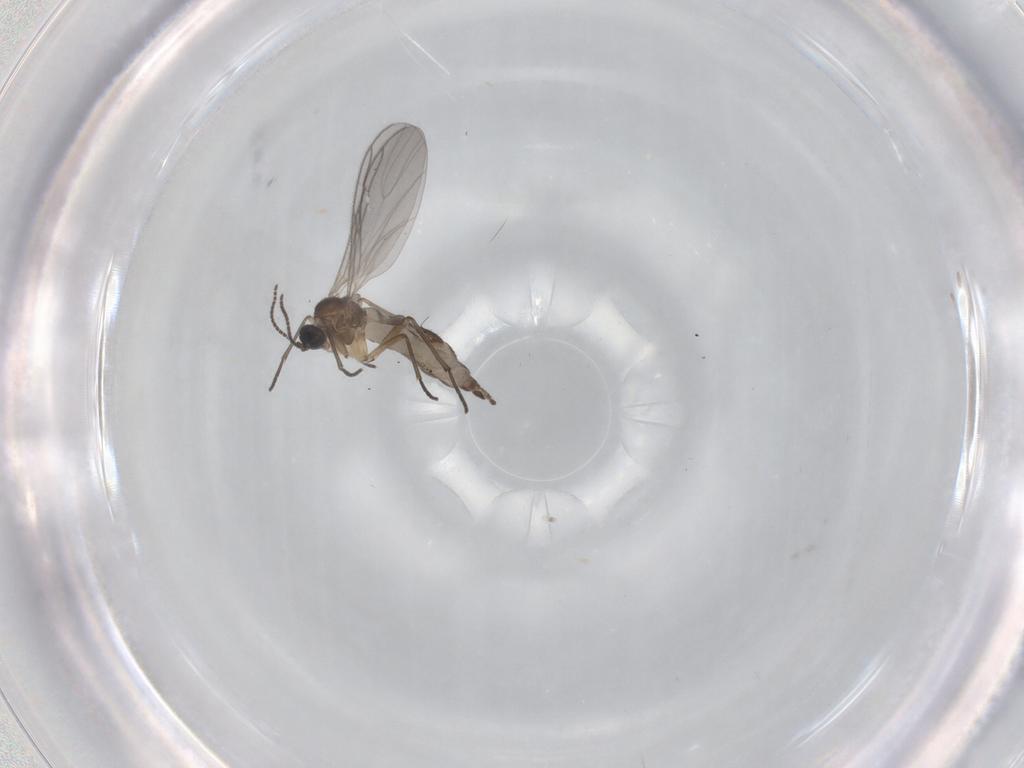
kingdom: Animalia
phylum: Arthropoda
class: Insecta
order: Diptera
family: Sciaridae
